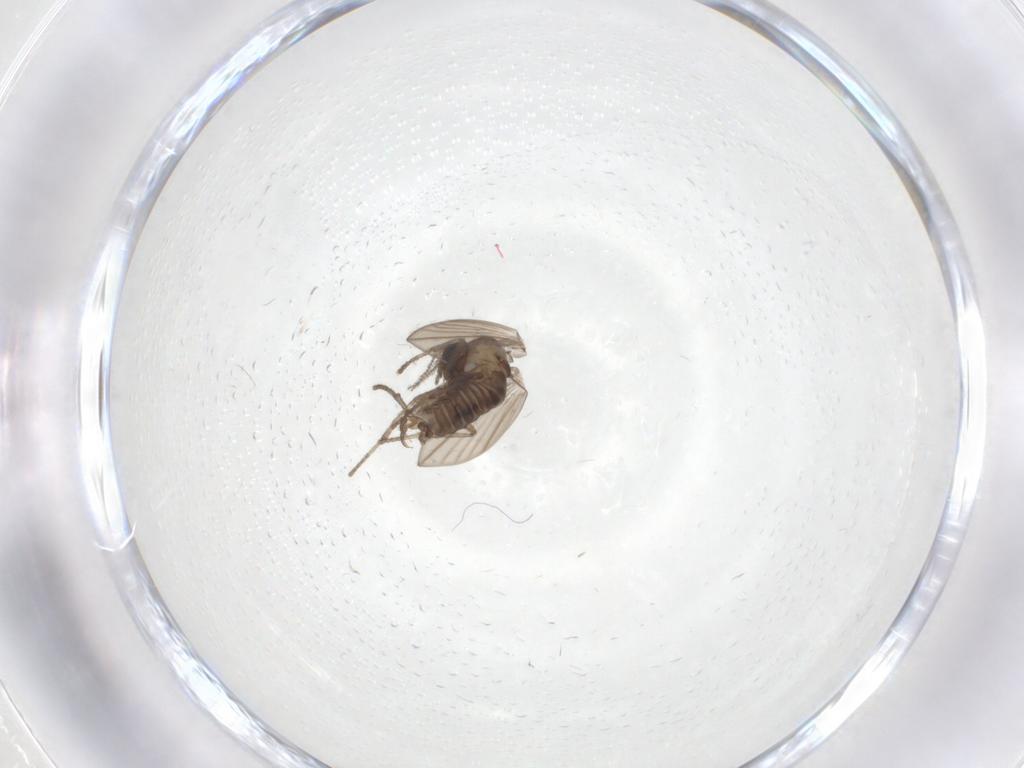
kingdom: Animalia
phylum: Arthropoda
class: Insecta
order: Diptera
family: Psychodidae
